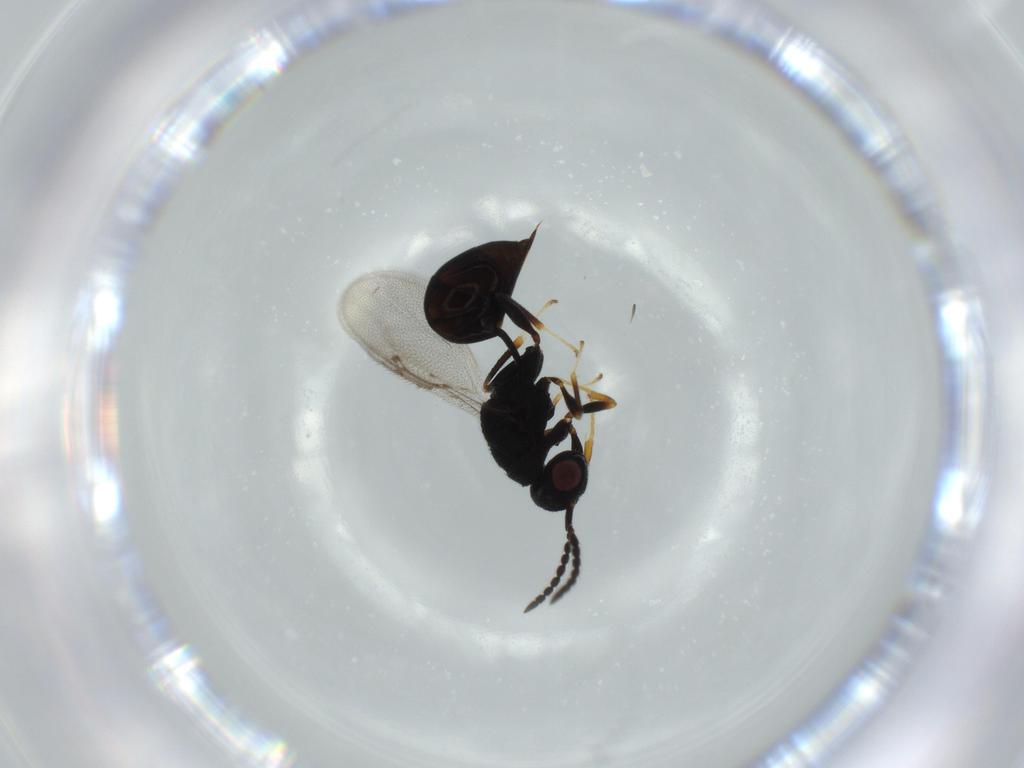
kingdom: Animalia
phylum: Arthropoda
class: Insecta
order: Hymenoptera
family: Eurytomidae
